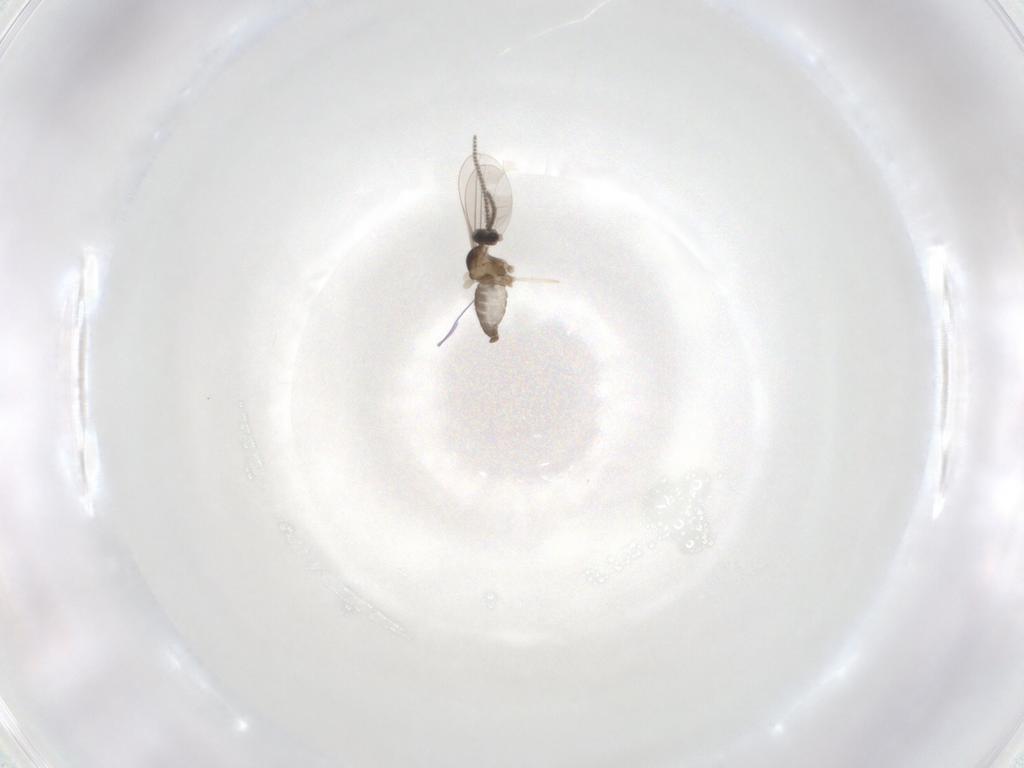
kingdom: Animalia
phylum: Arthropoda
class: Insecta
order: Diptera
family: Cecidomyiidae
